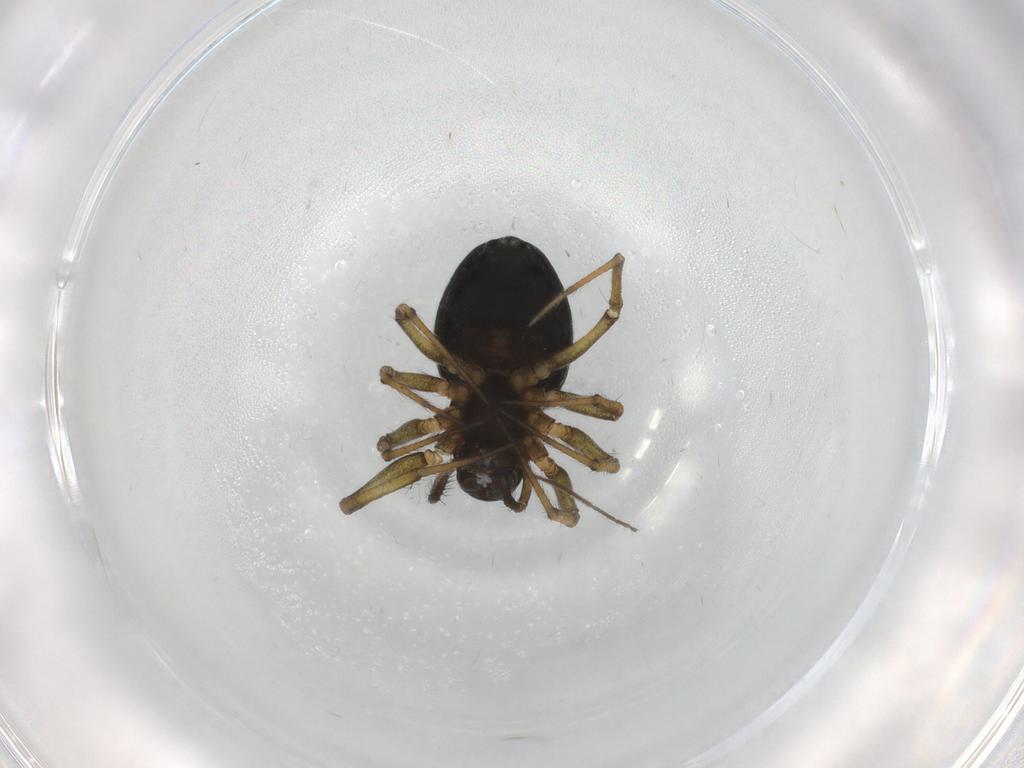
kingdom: Animalia
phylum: Arthropoda
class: Arachnida
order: Araneae
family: Linyphiidae
